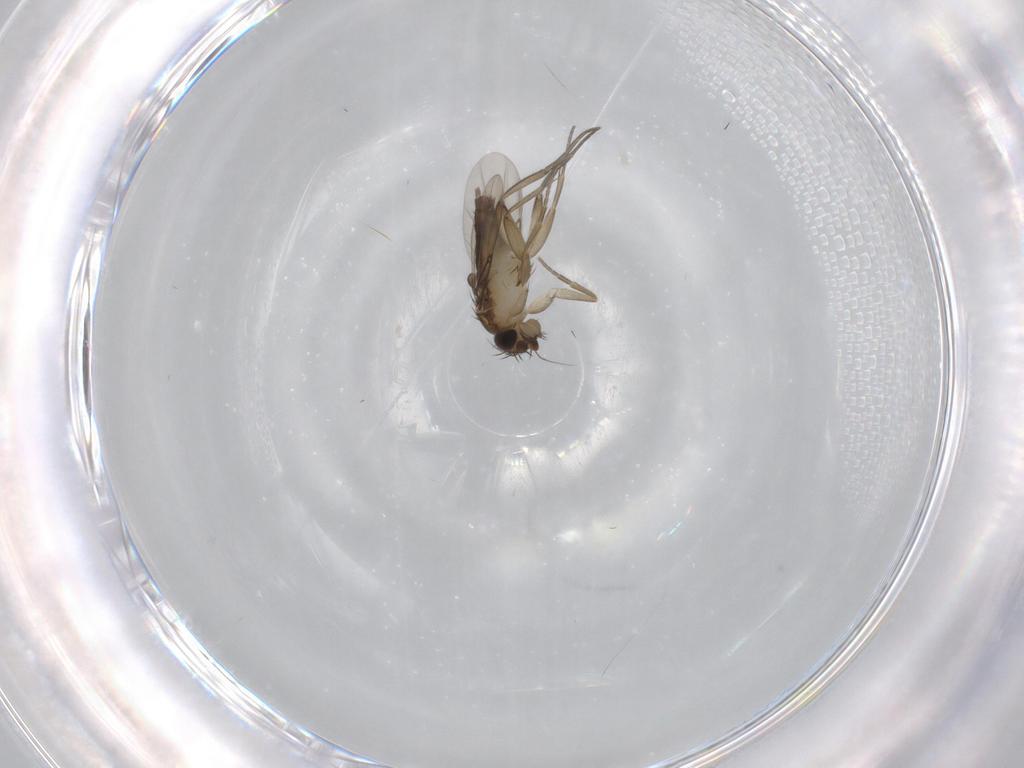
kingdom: Animalia
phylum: Arthropoda
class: Insecta
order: Diptera
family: Phoridae
